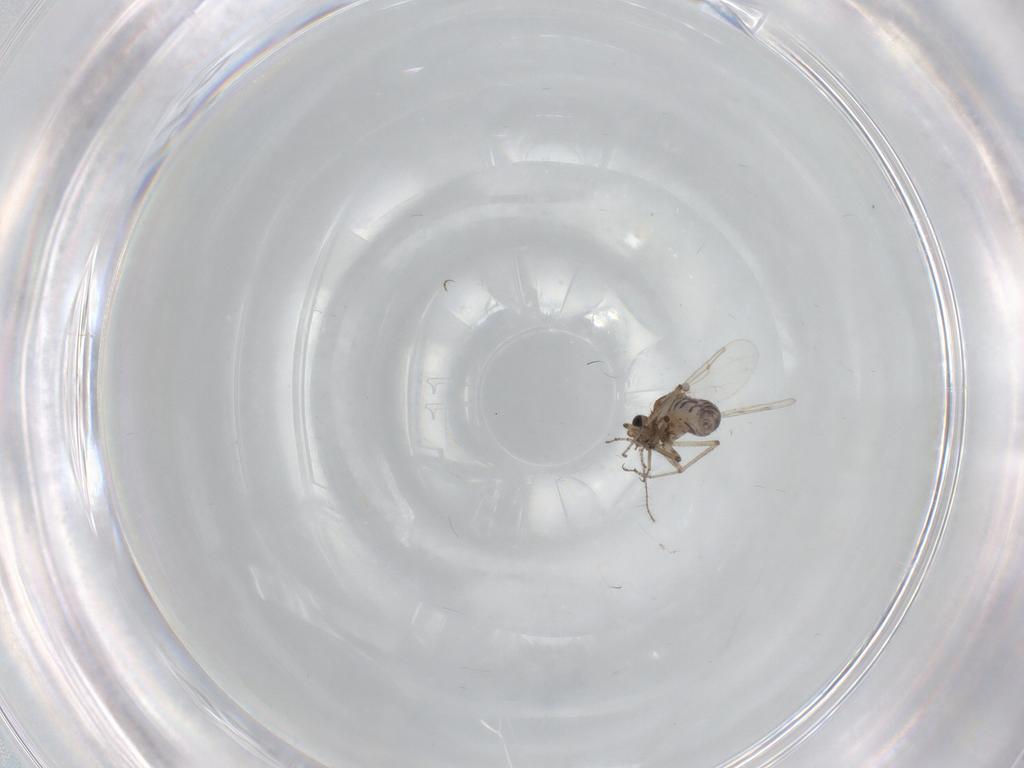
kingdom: Animalia
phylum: Arthropoda
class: Insecta
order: Diptera
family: Ceratopogonidae
